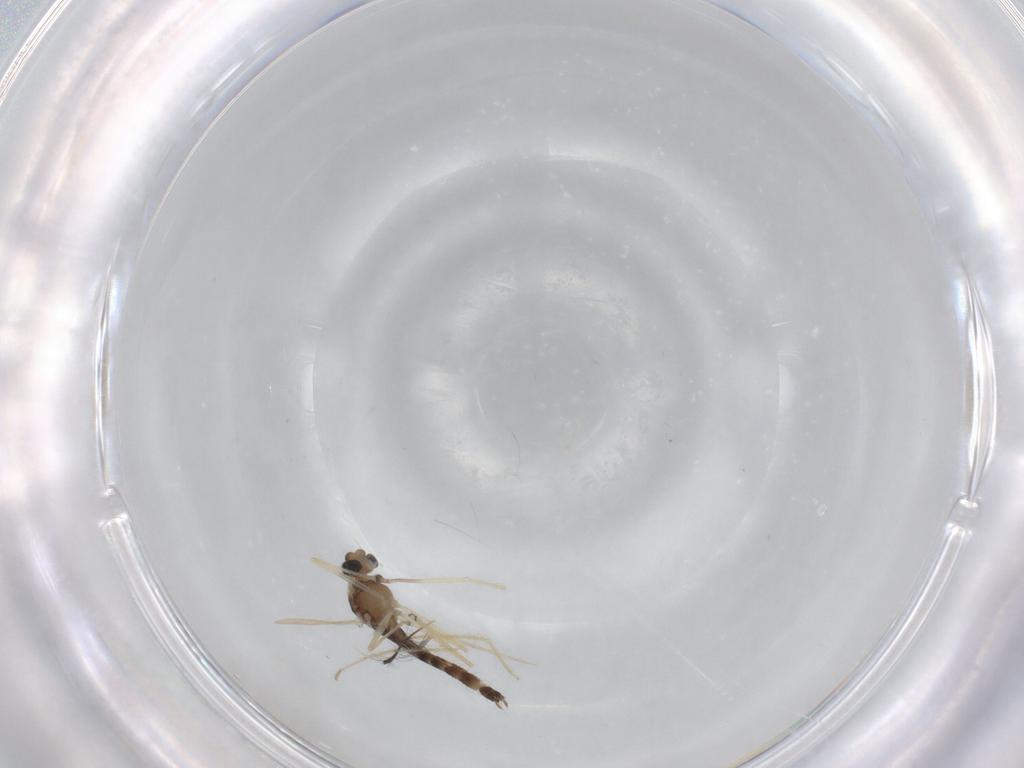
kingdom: Animalia
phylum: Arthropoda
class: Insecta
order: Diptera
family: Chironomidae
